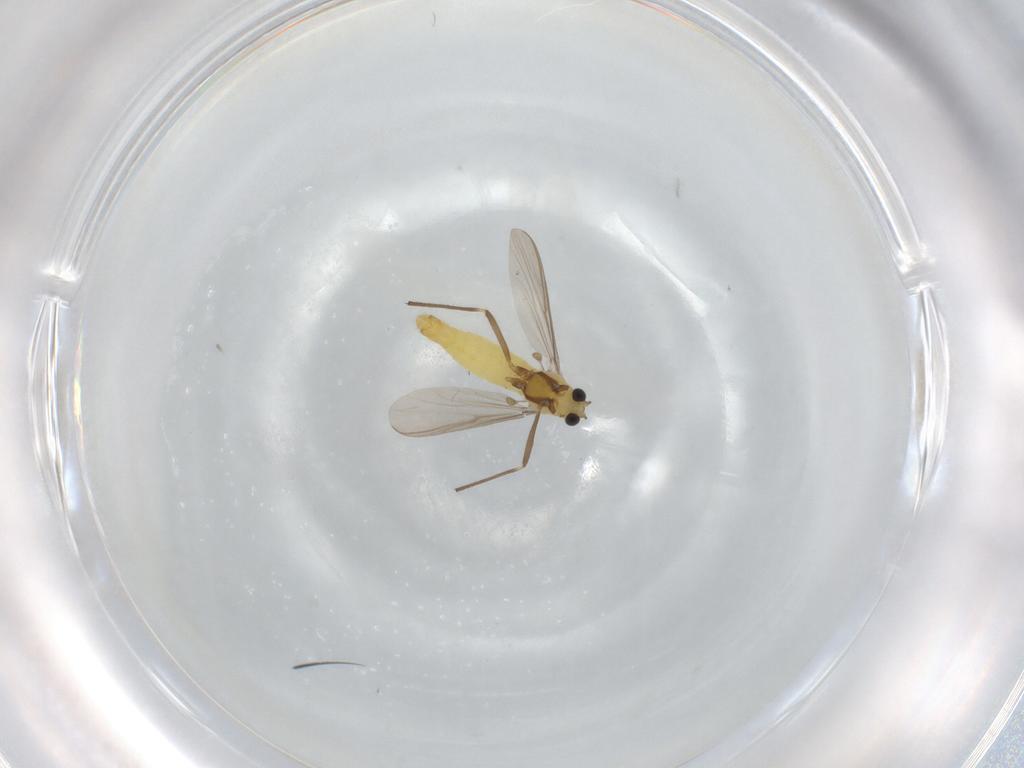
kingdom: Animalia
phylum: Arthropoda
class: Insecta
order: Diptera
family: Chironomidae
